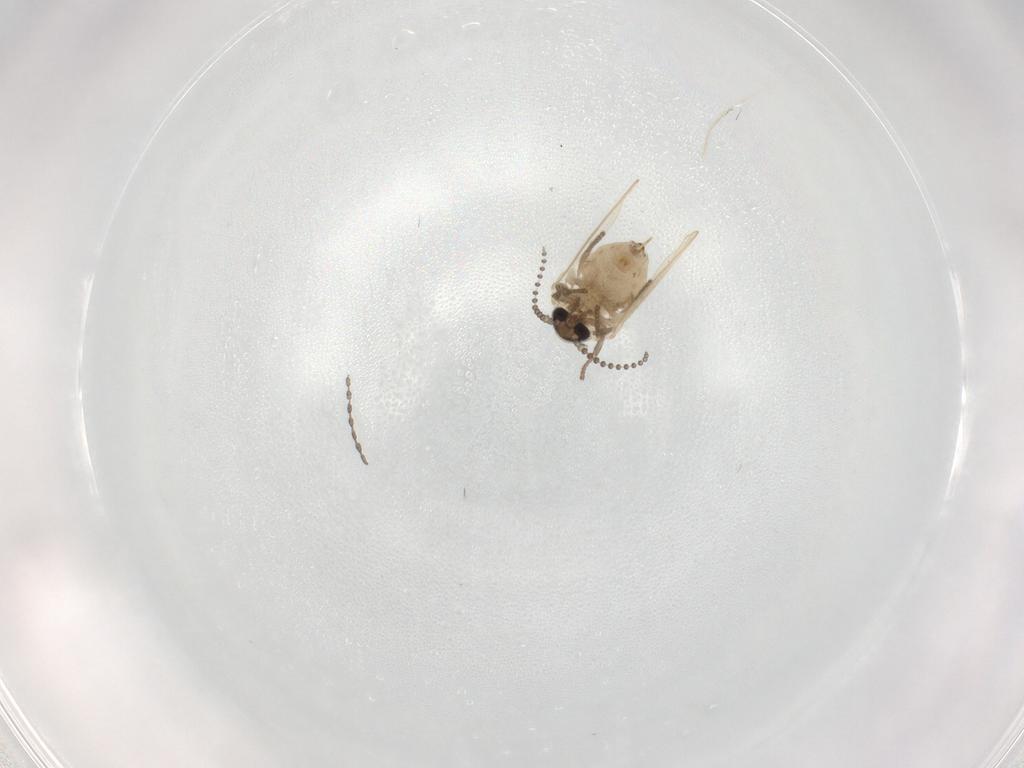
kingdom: Animalia
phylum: Arthropoda
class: Insecta
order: Diptera
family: Psychodidae
